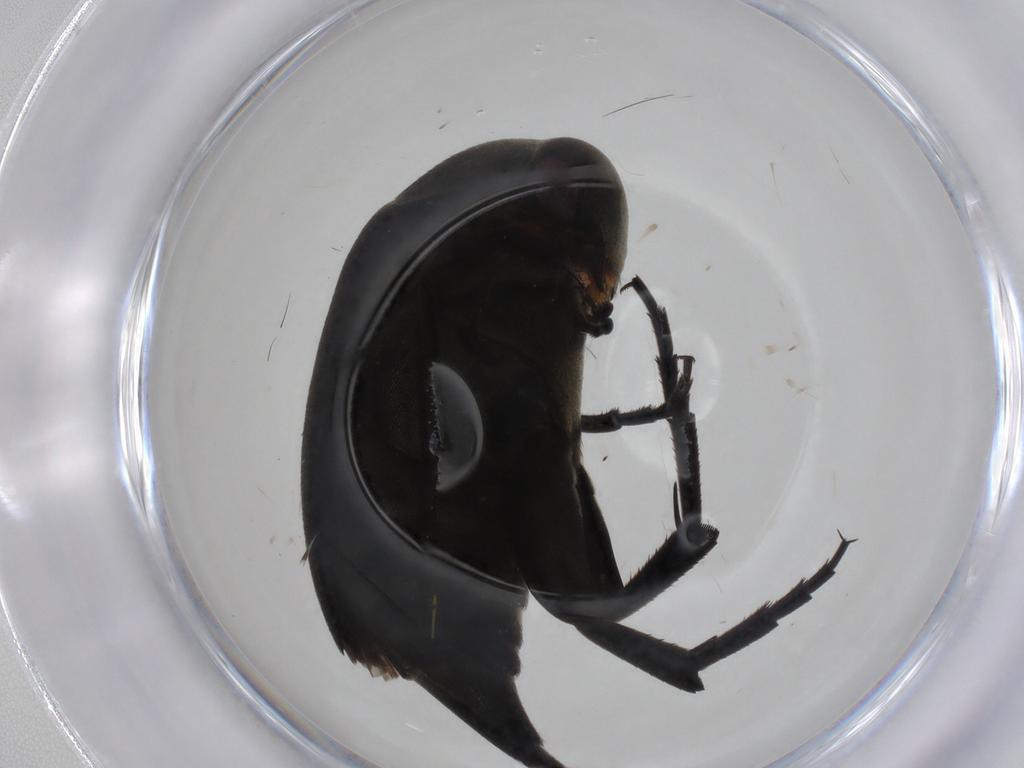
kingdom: Animalia
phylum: Arthropoda
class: Insecta
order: Coleoptera
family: Mordellidae
